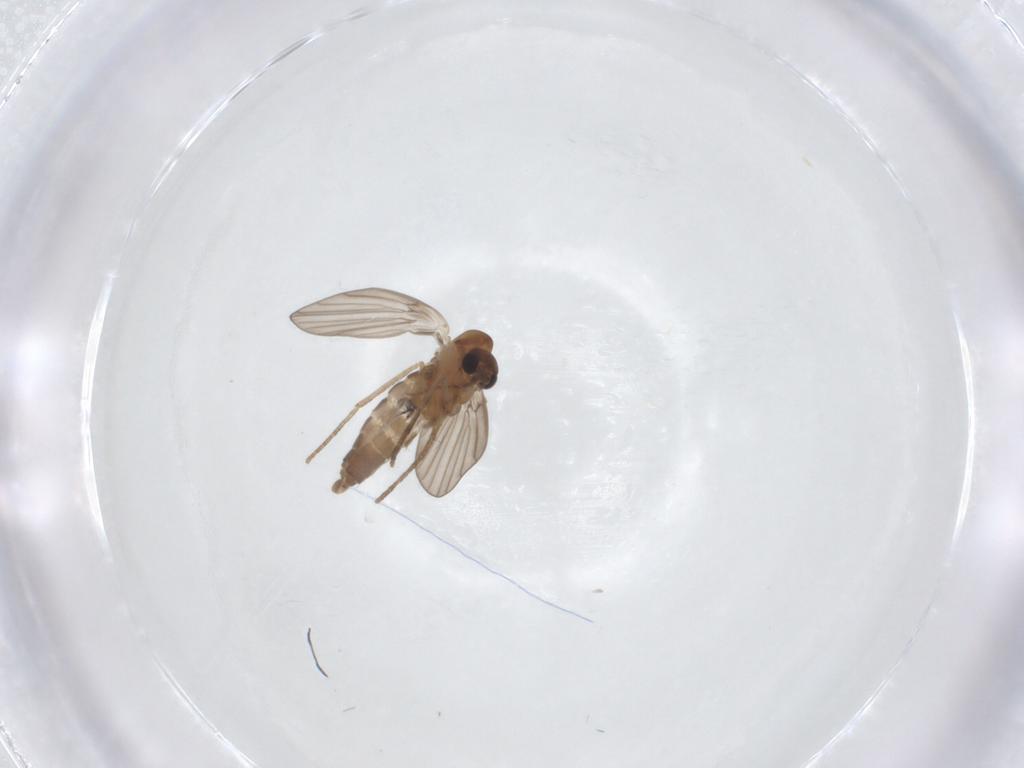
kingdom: Animalia
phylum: Arthropoda
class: Insecta
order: Diptera
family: Chironomidae
